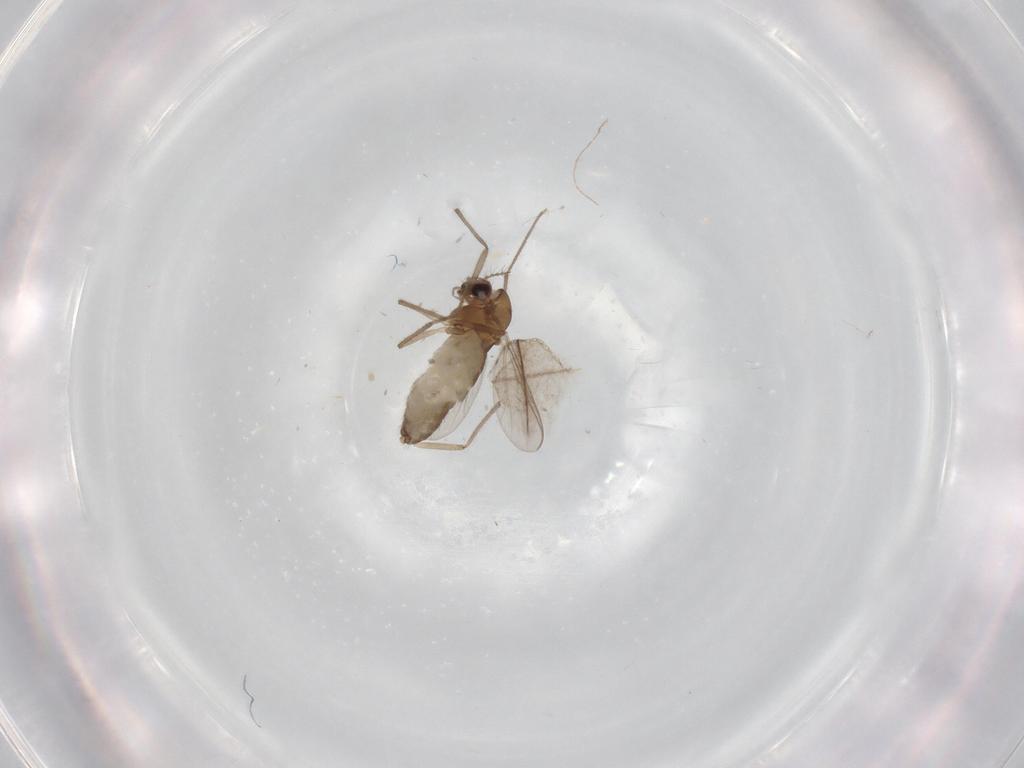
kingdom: Animalia
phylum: Arthropoda
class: Insecta
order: Diptera
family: Chironomidae
